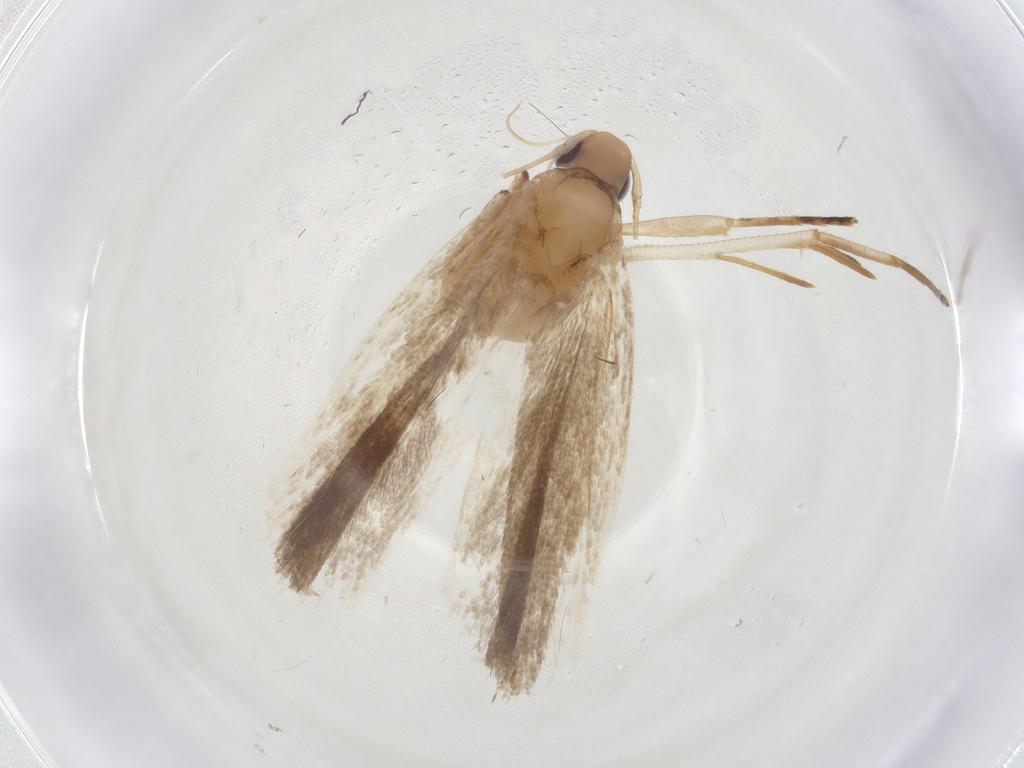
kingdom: Animalia
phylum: Arthropoda
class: Insecta
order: Lepidoptera
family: Depressariidae
